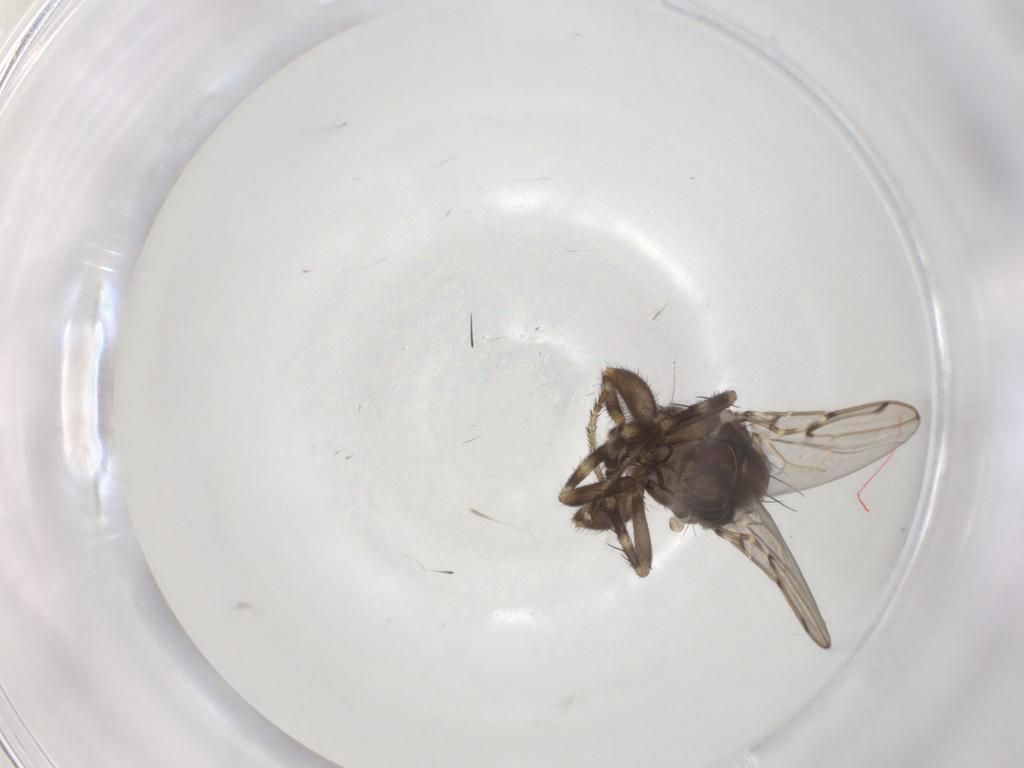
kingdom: Animalia
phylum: Arthropoda
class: Insecta
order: Diptera
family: Sphaeroceridae
